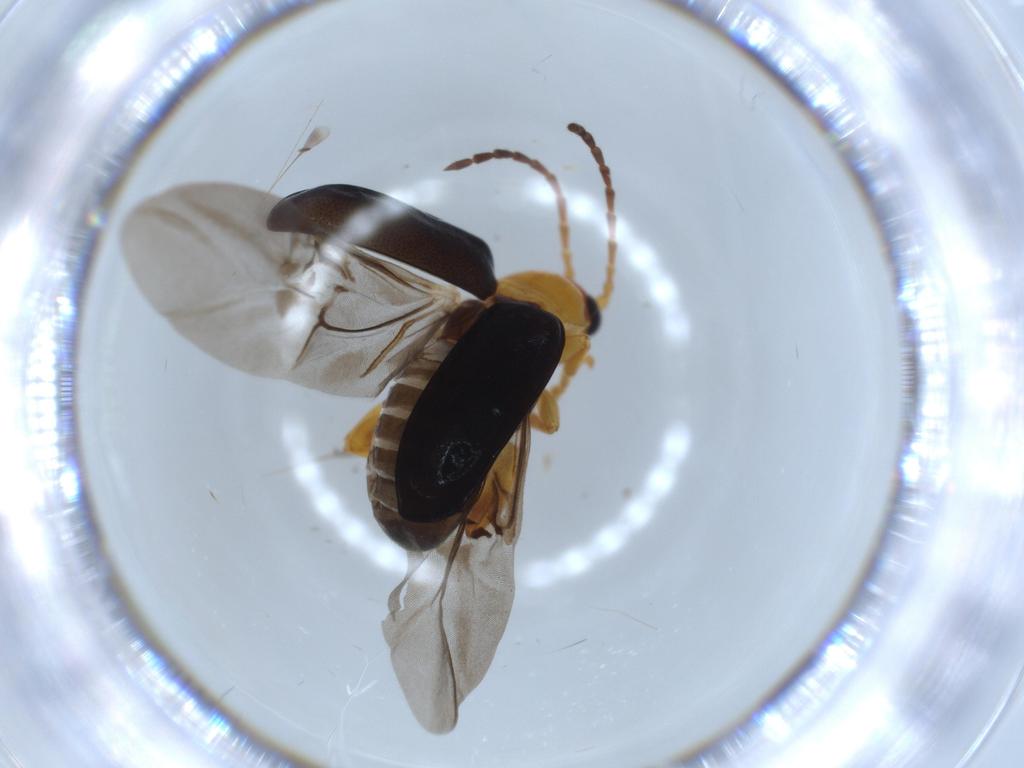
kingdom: Animalia
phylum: Arthropoda
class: Insecta
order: Coleoptera
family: Chrysomelidae
